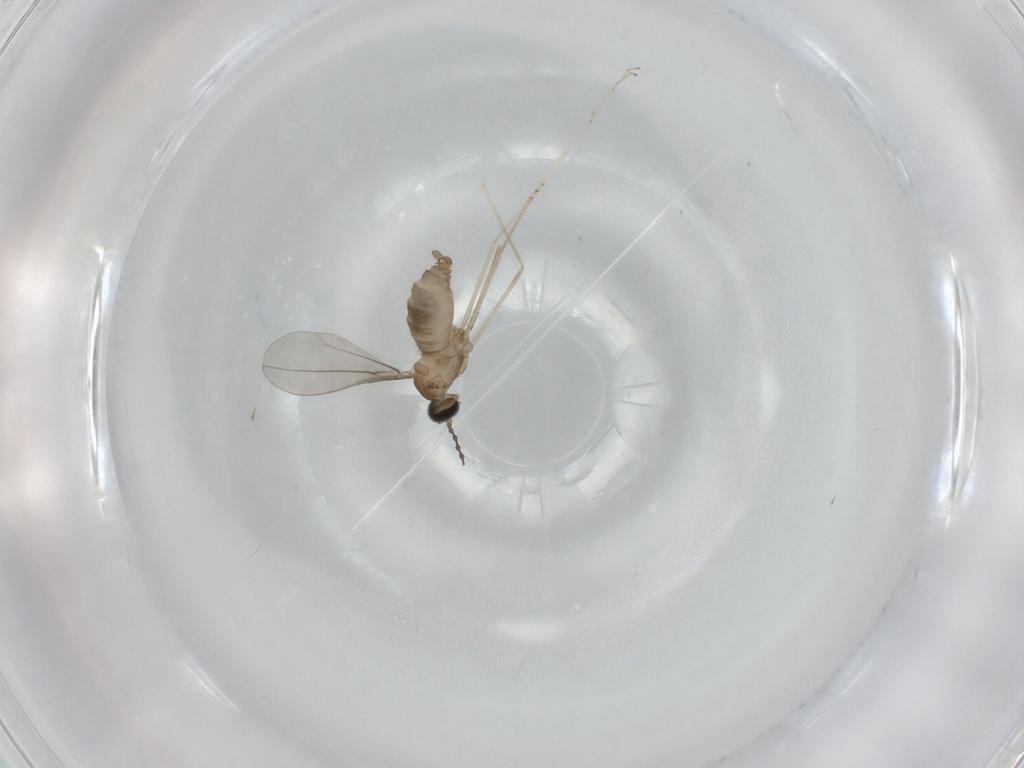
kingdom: Animalia
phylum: Arthropoda
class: Insecta
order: Diptera
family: Cecidomyiidae
